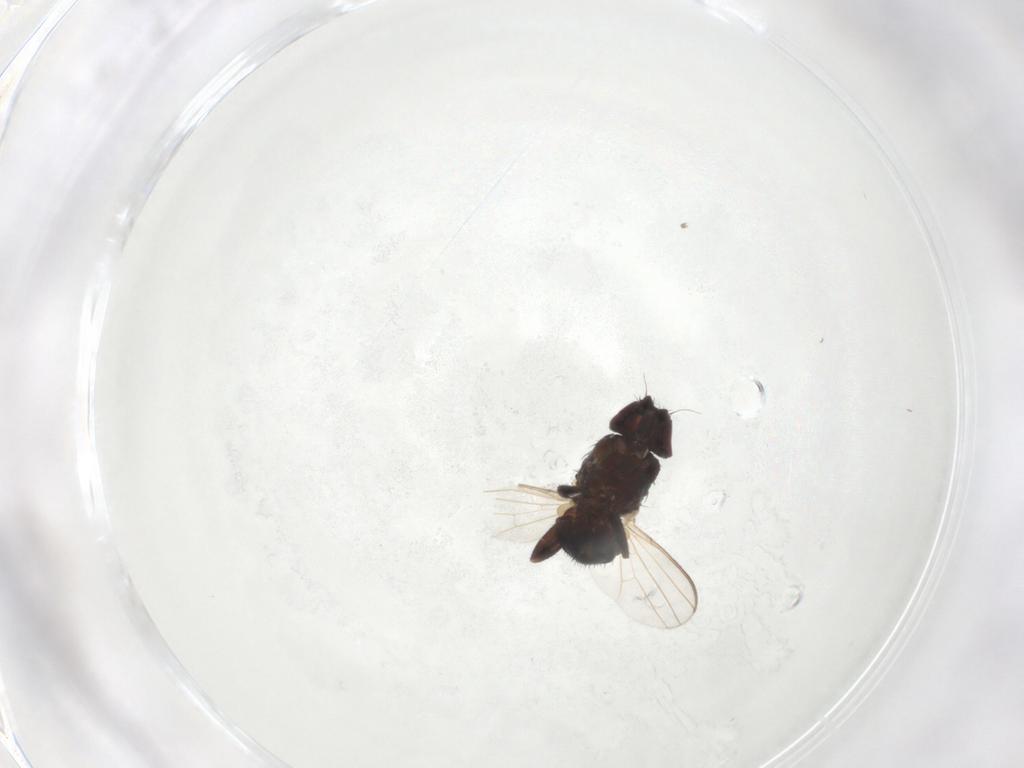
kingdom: Animalia
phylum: Arthropoda
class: Insecta
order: Diptera
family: Milichiidae
